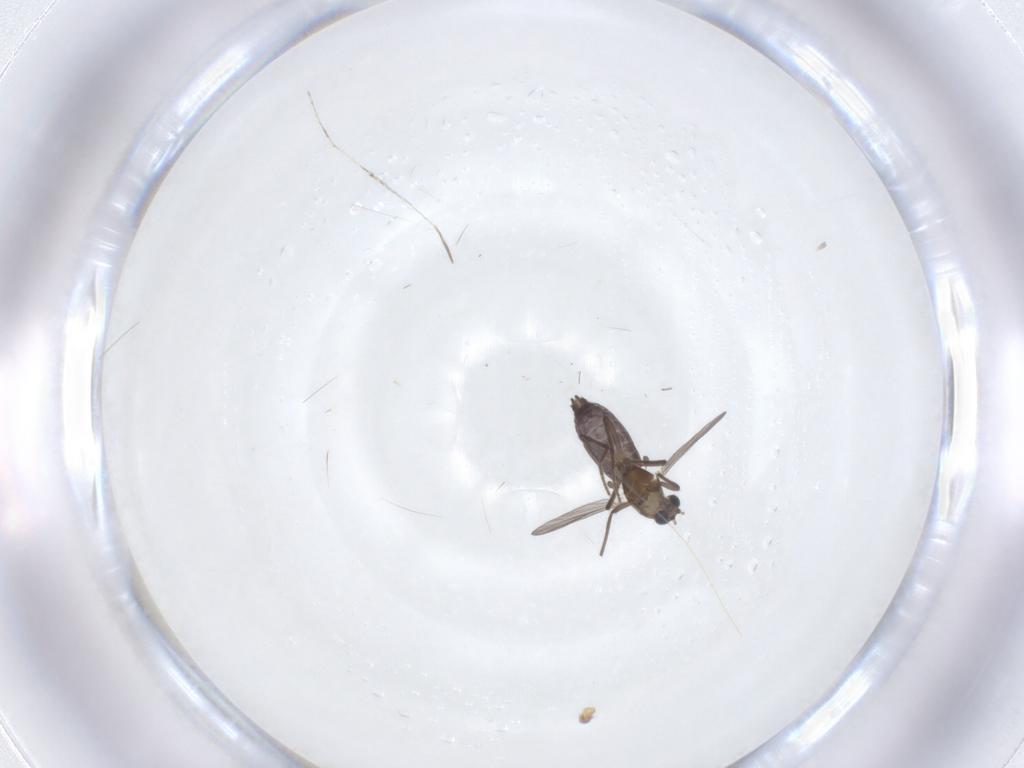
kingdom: Animalia
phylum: Arthropoda
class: Insecta
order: Diptera
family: Chironomidae
